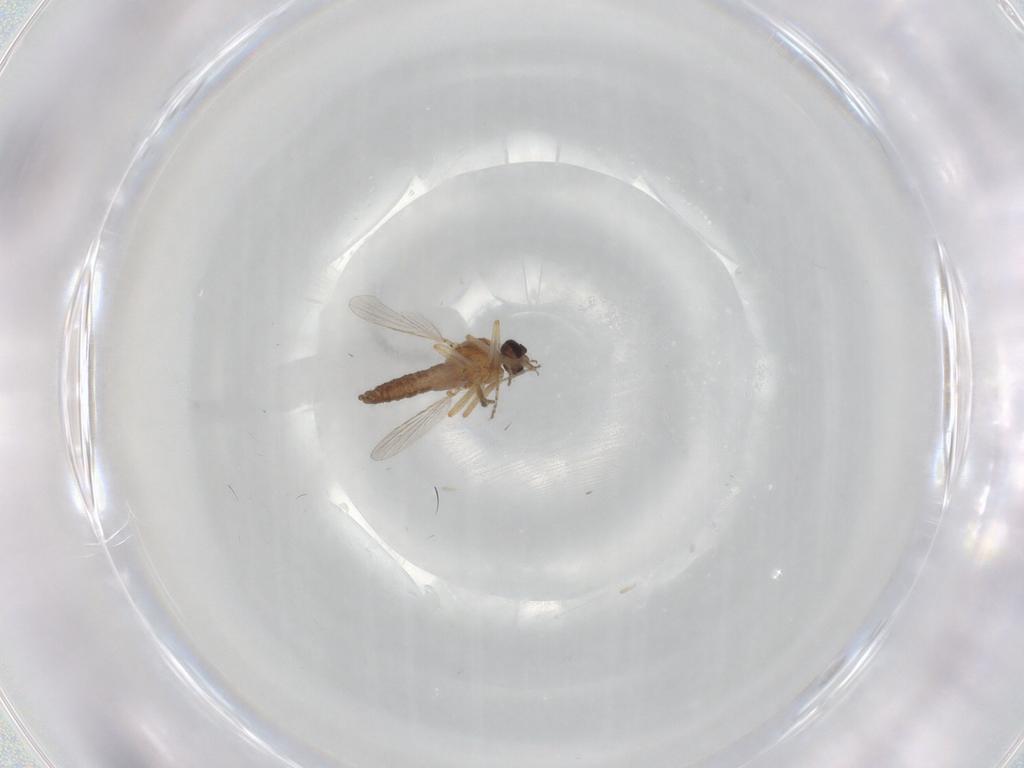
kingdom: Animalia
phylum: Arthropoda
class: Insecta
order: Diptera
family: Ceratopogonidae
